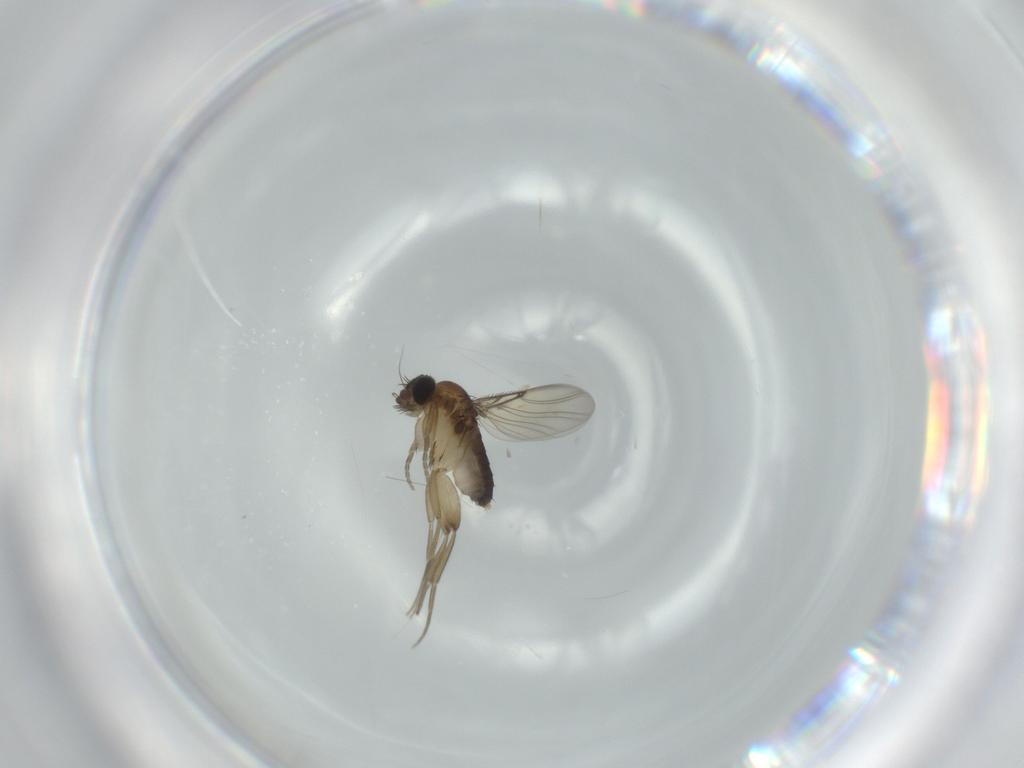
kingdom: Animalia
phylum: Arthropoda
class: Insecta
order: Diptera
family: Phoridae
